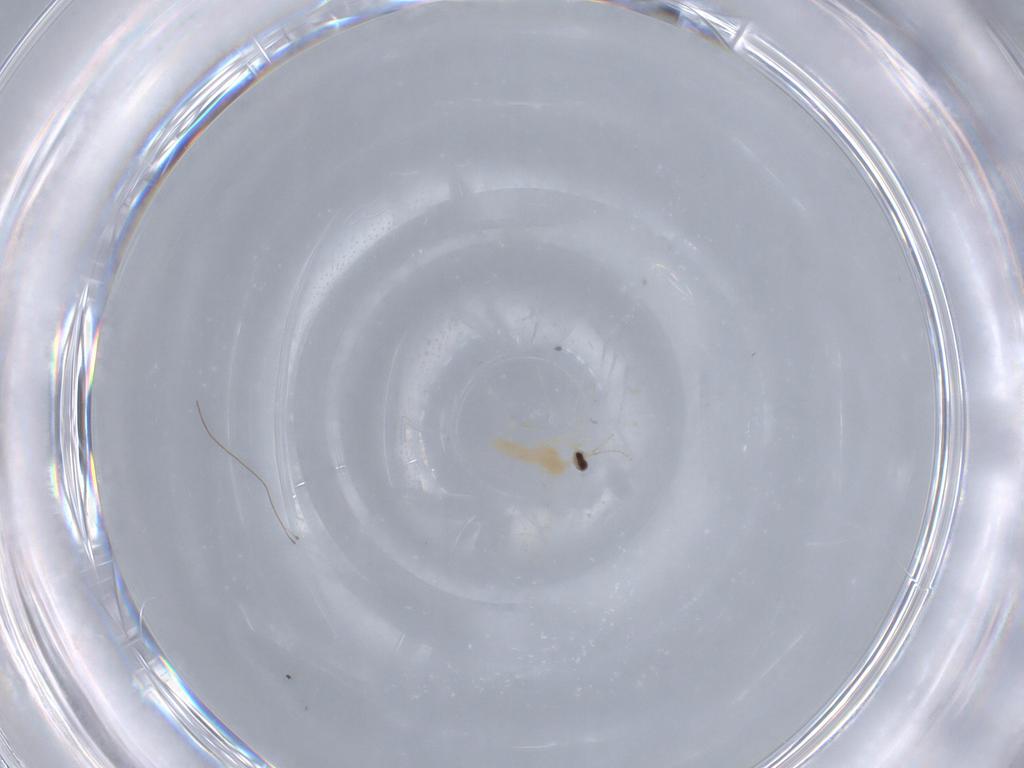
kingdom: Animalia
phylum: Arthropoda
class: Insecta
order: Diptera
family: Cecidomyiidae
